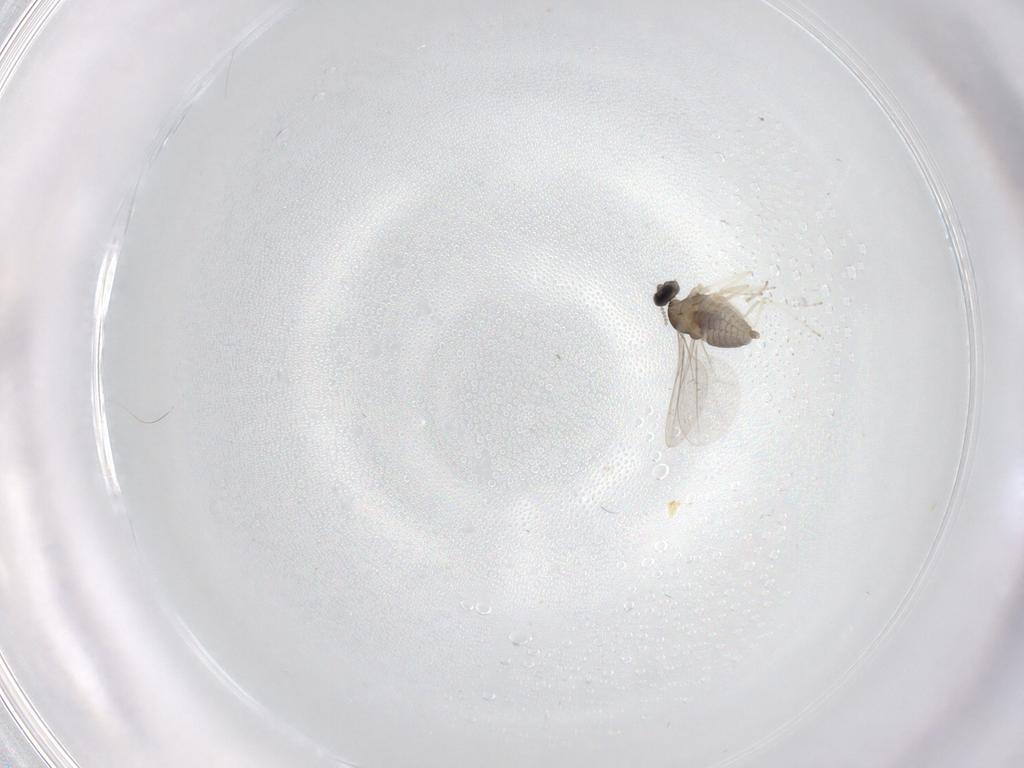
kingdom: Animalia
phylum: Arthropoda
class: Insecta
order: Diptera
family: Cecidomyiidae
